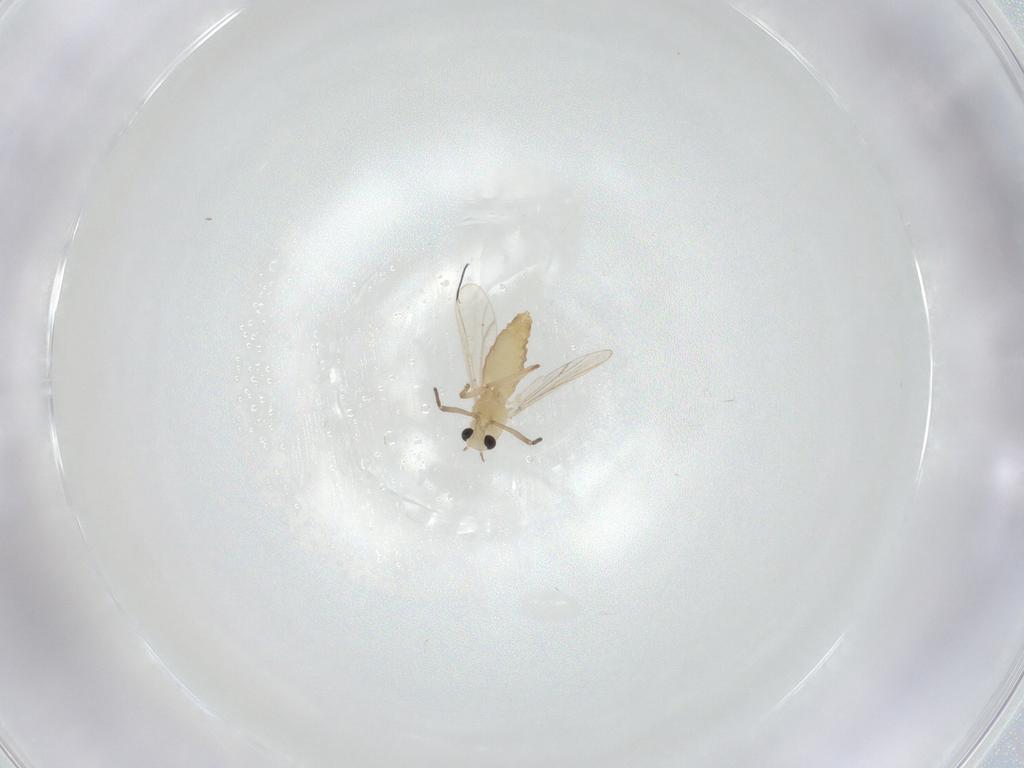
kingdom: Animalia
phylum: Arthropoda
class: Insecta
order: Diptera
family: Chironomidae
